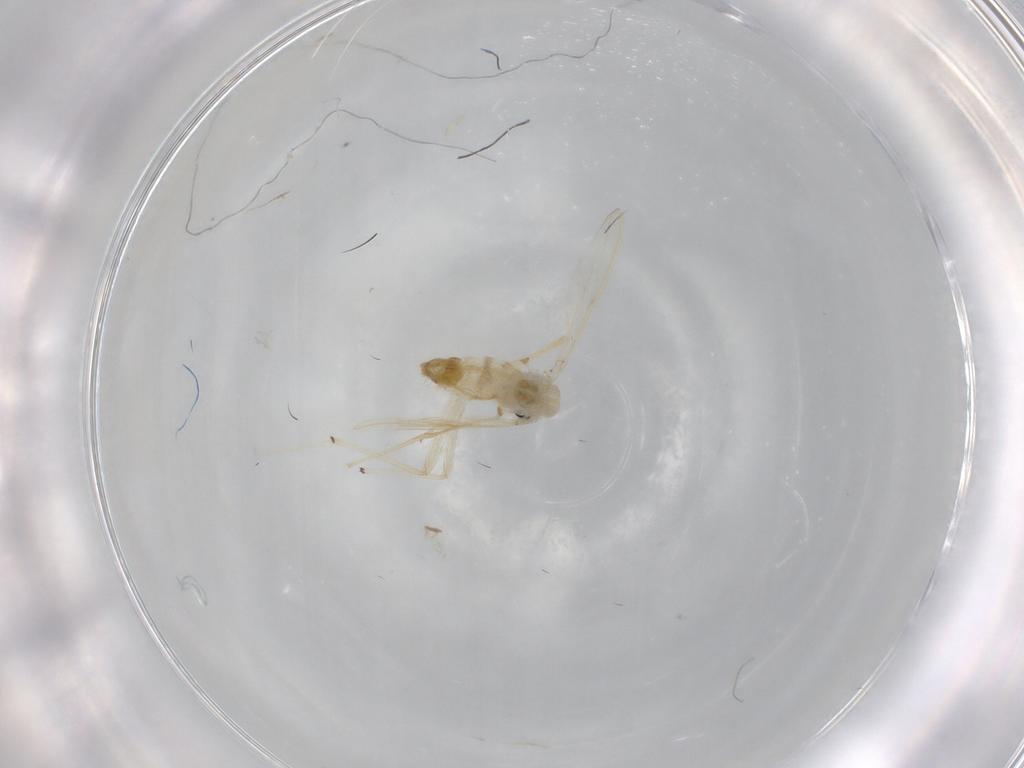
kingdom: Animalia
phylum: Arthropoda
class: Insecta
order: Diptera
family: Chironomidae
